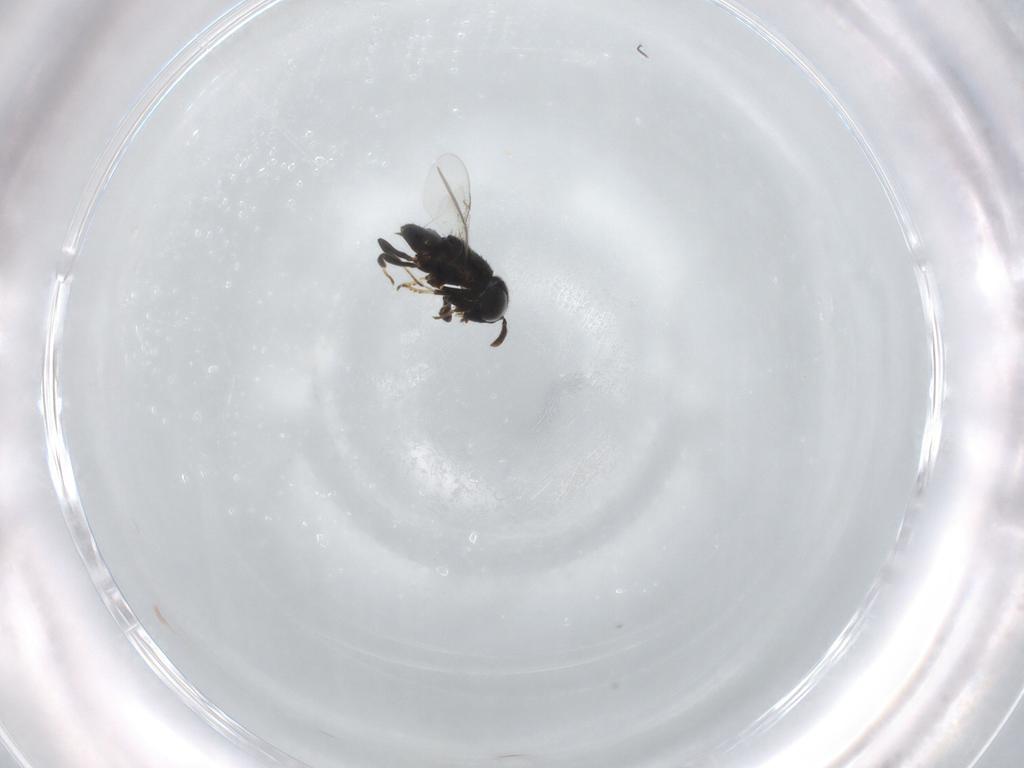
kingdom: Animalia
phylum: Arthropoda
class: Insecta
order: Hymenoptera
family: Encyrtidae
